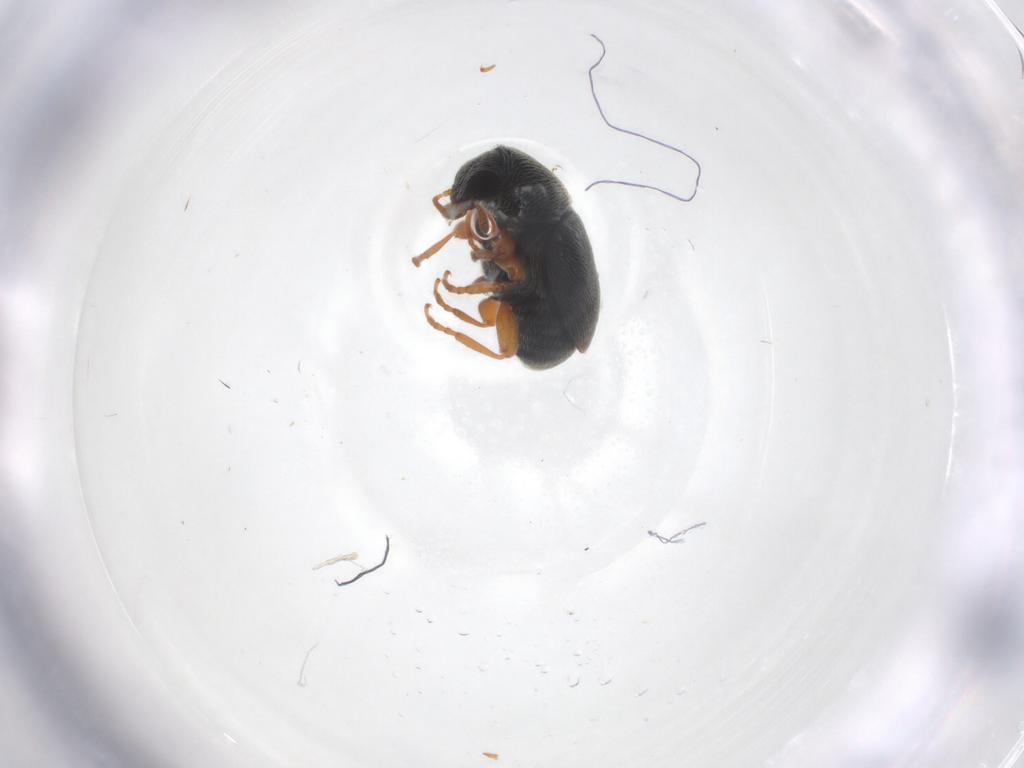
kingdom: Animalia
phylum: Arthropoda
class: Insecta
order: Coleoptera
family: Anthribidae
